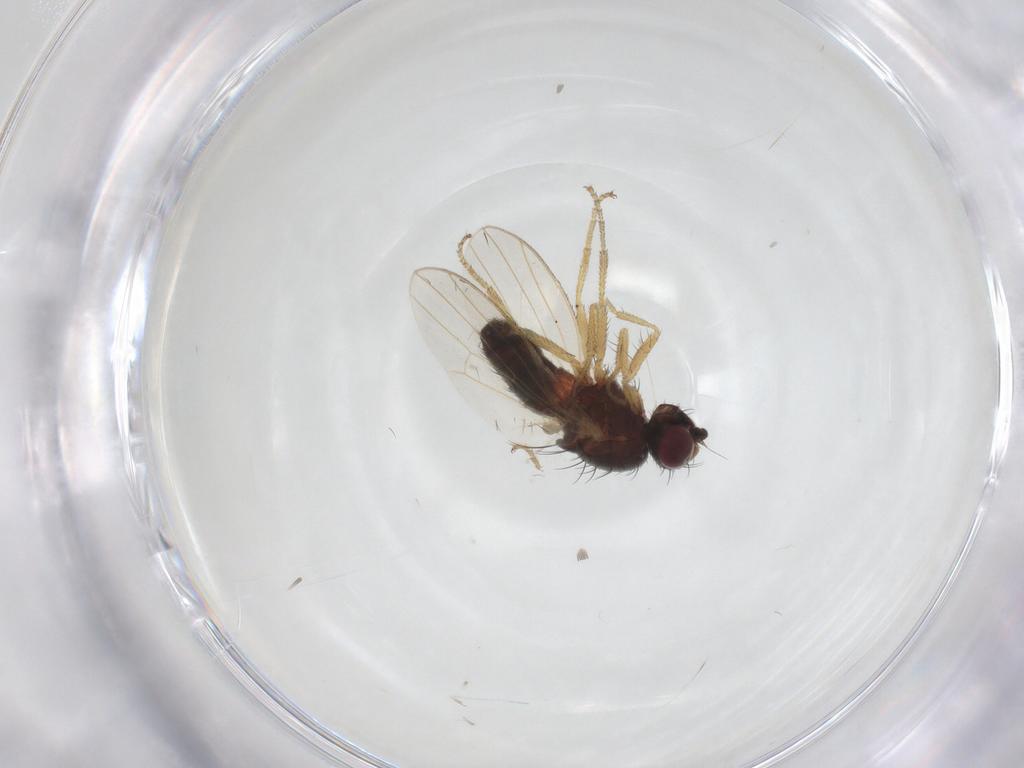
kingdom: Animalia
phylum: Arthropoda
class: Insecta
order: Diptera
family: Heleomyzidae
